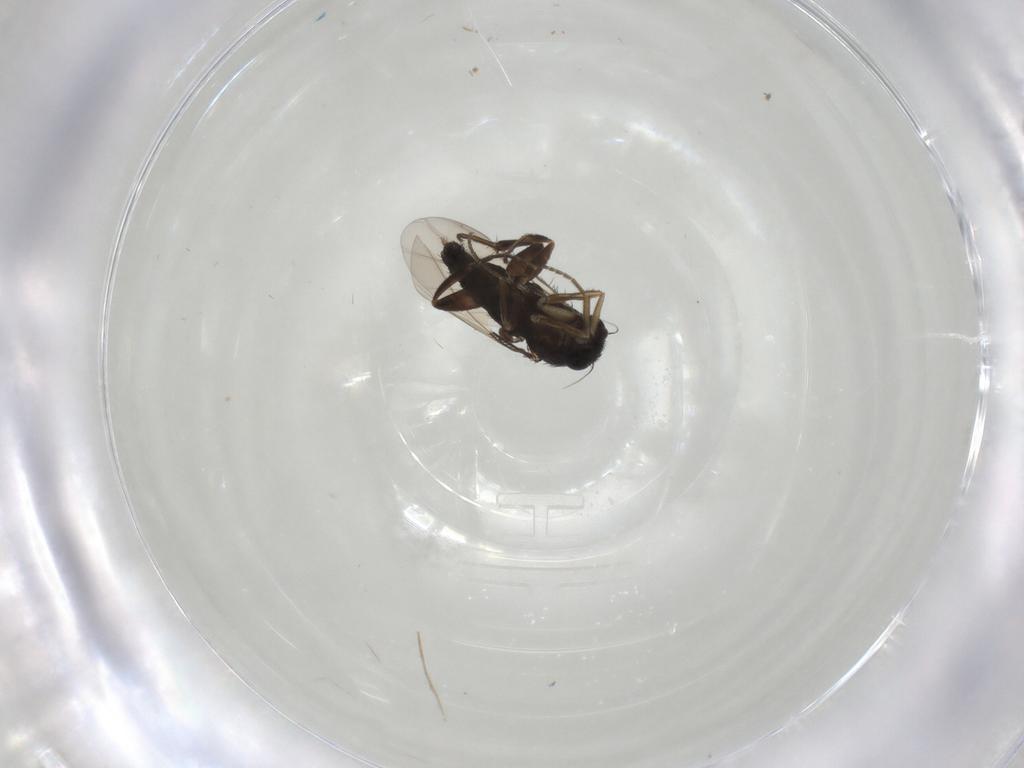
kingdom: Animalia
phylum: Arthropoda
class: Insecta
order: Diptera
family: Phoridae
